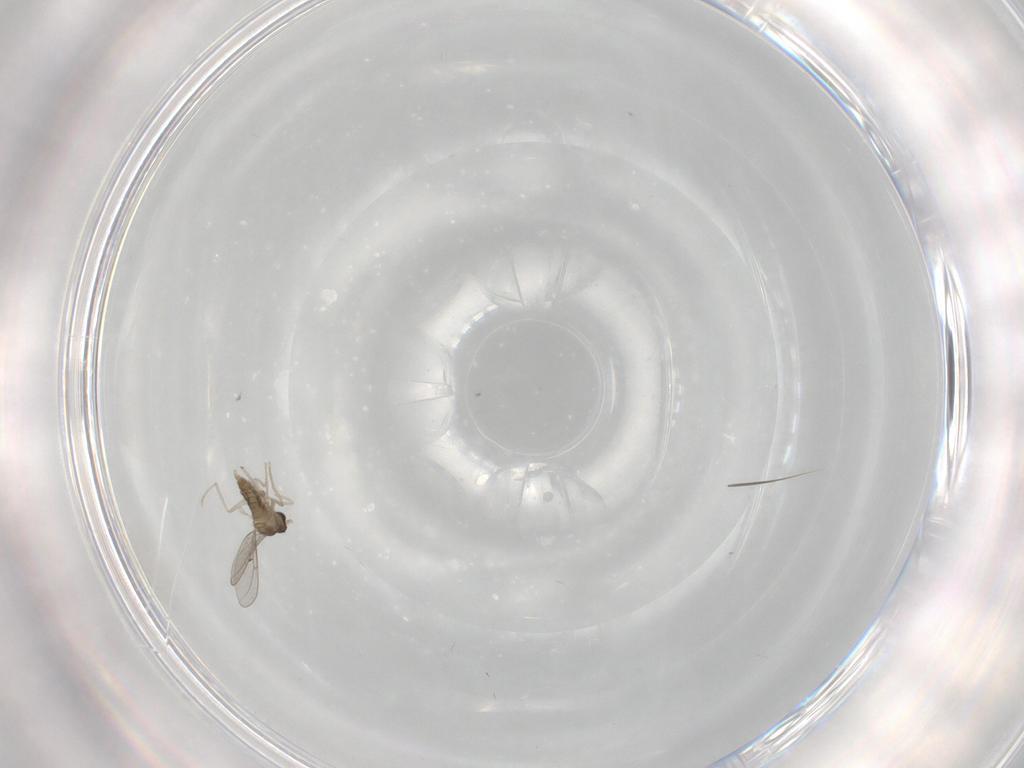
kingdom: Animalia
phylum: Arthropoda
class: Insecta
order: Diptera
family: Cecidomyiidae
